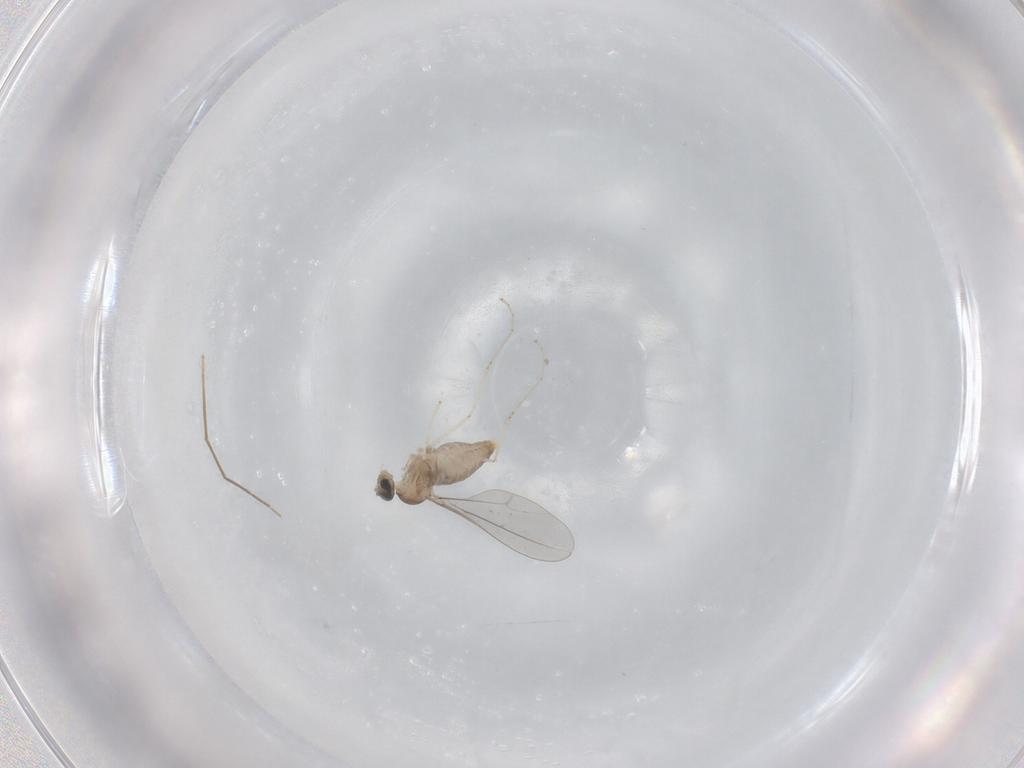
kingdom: Animalia
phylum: Arthropoda
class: Insecta
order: Diptera
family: Cecidomyiidae
